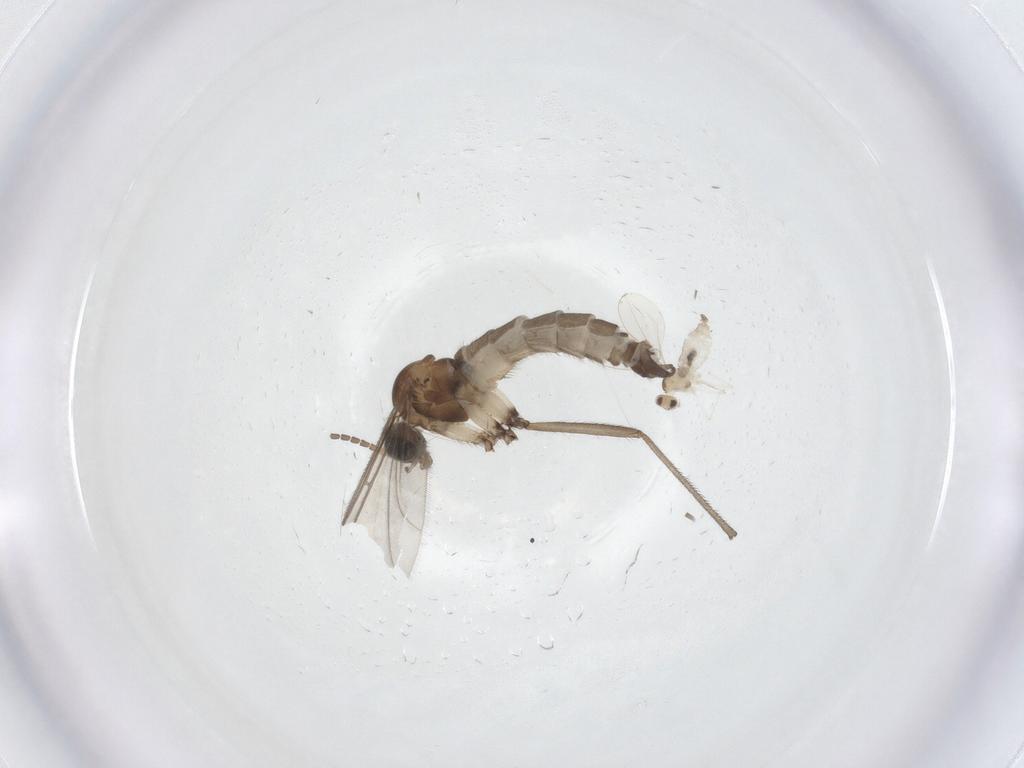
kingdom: Animalia
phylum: Arthropoda
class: Insecta
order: Diptera
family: Sciaridae
